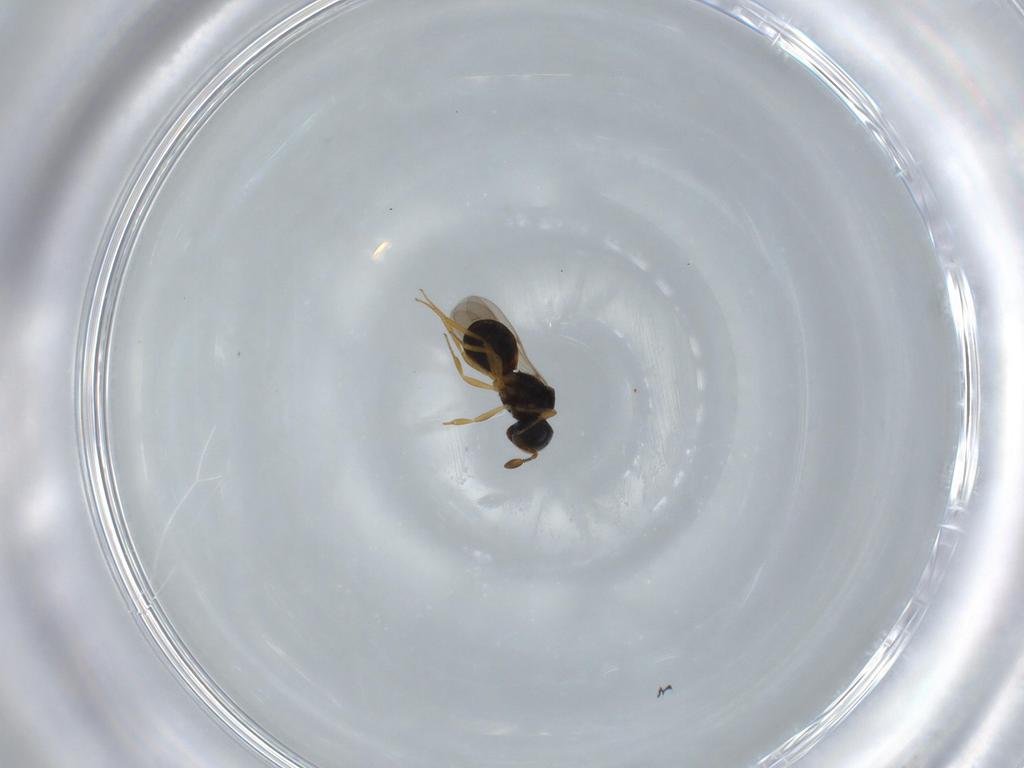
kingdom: Animalia
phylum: Arthropoda
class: Insecta
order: Hymenoptera
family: Scelionidae
